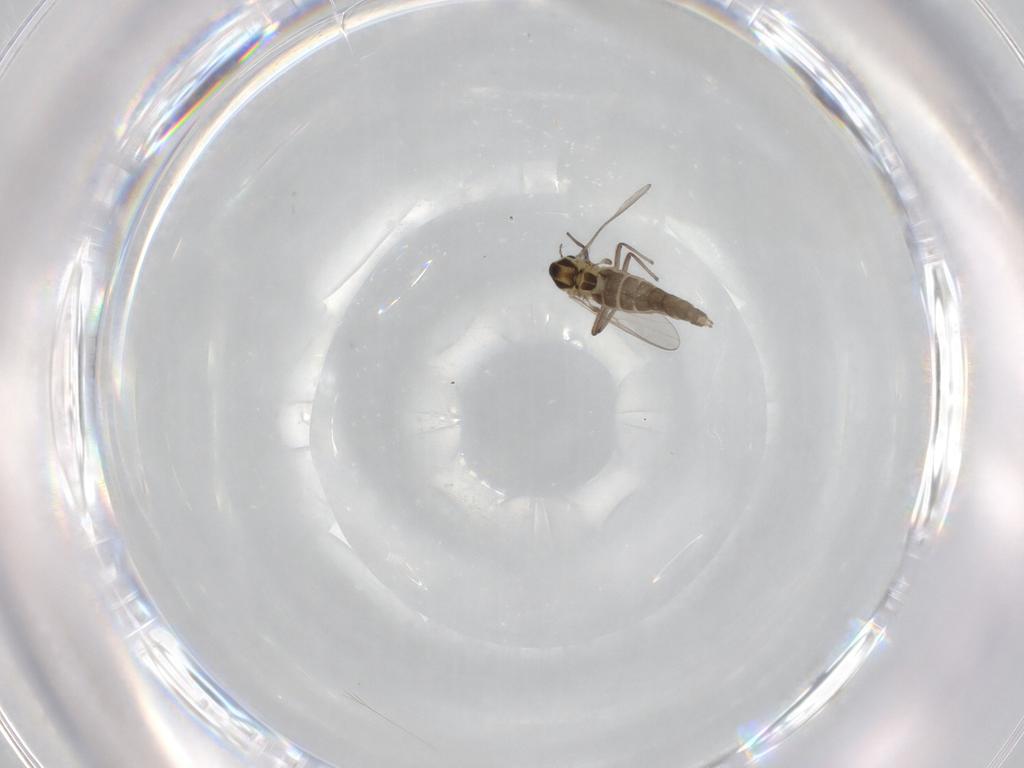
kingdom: Animalia
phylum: Arthropoda
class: Insecta
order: Diptera
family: Chironomidae
